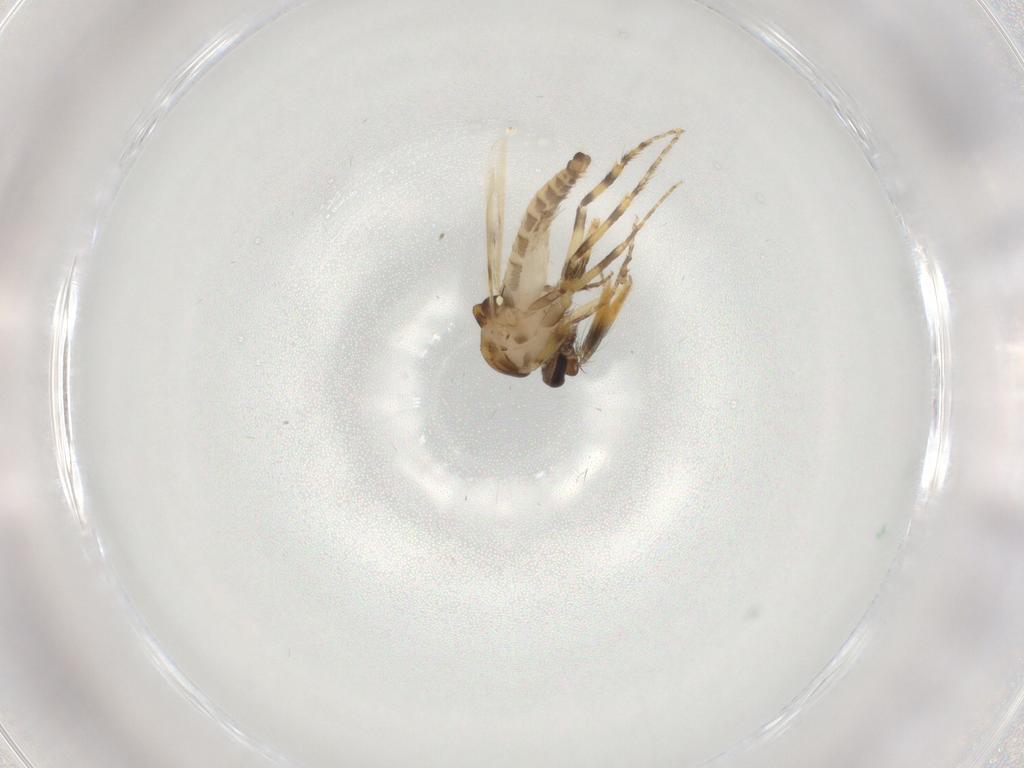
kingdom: Animalia
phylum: Arthropoda
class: Insecta
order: Diptera
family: Ceratopogonidae
